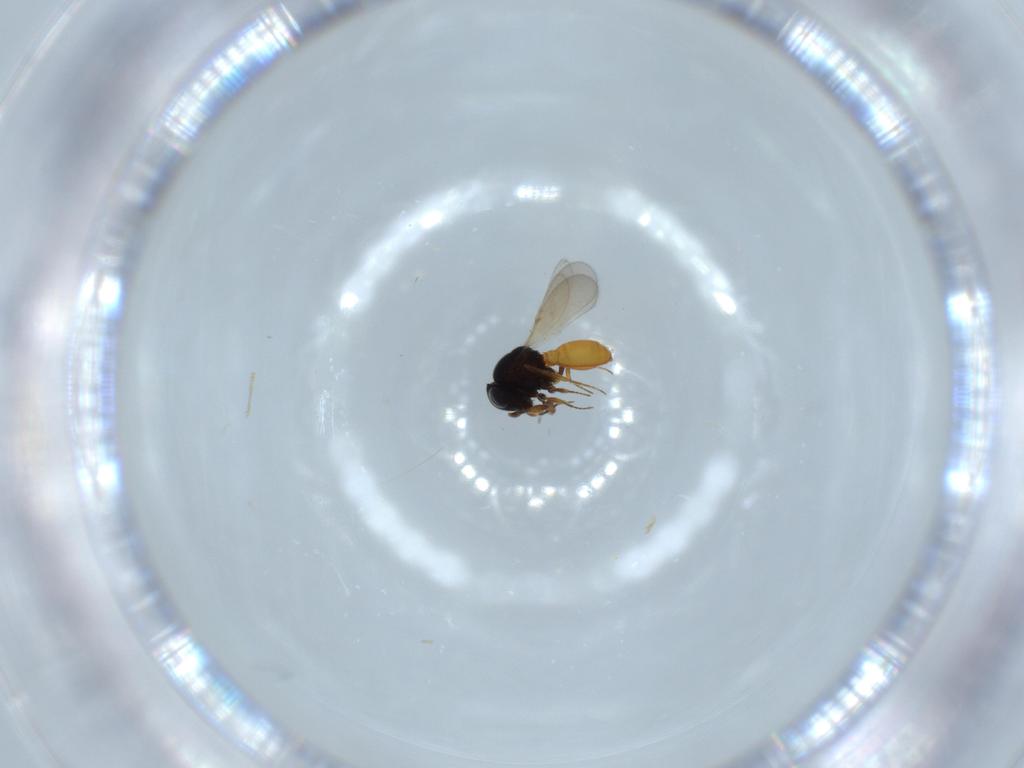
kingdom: Animalia
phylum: Arthropoda
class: Insecta
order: Hymenoptera
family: Scelionidae
